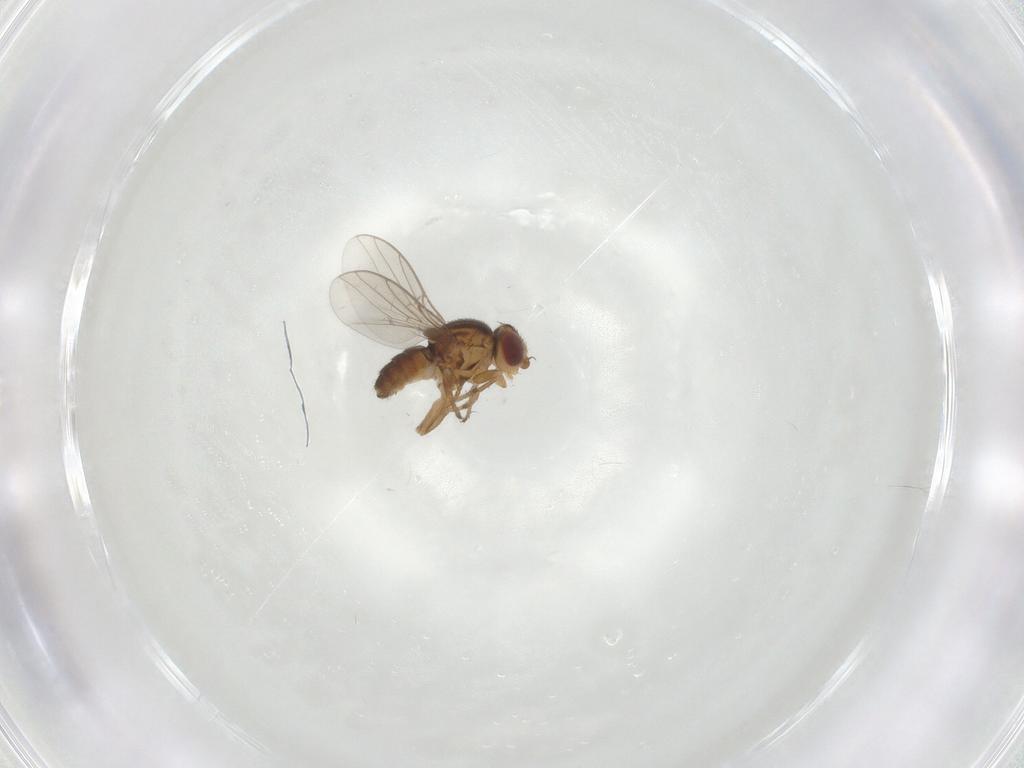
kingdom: Animalia
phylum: Arthropoda
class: Insecta
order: Diptera
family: Chloropidae
